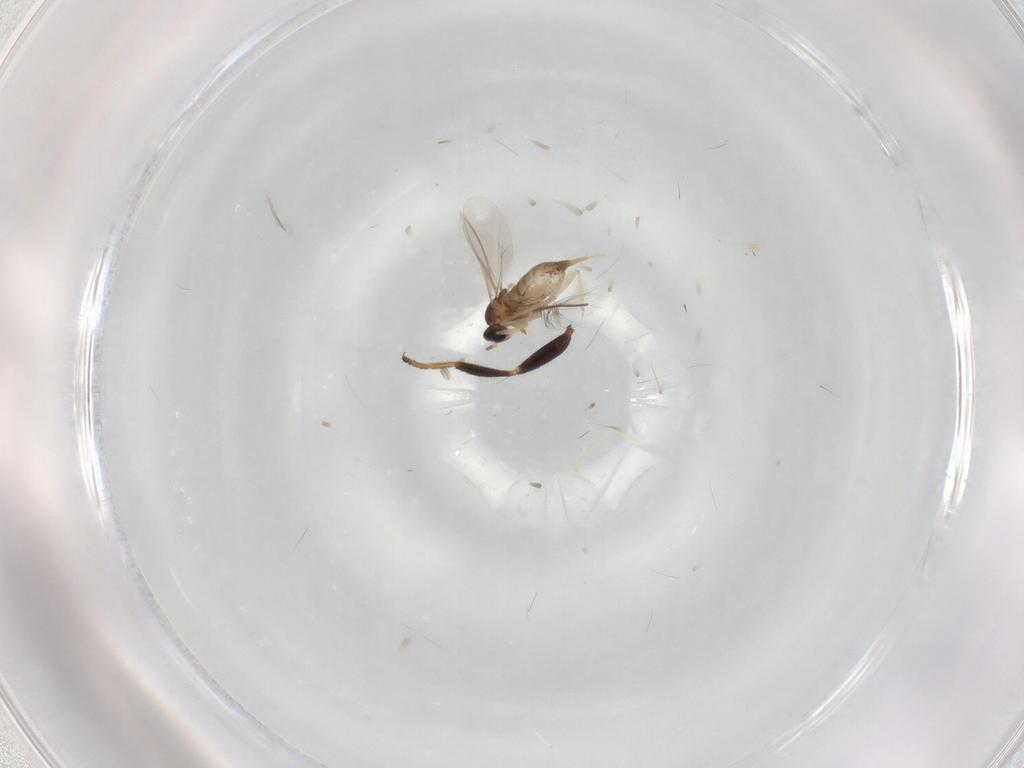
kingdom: Animalia
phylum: Arthropoda
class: Insecta
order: Diptera
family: Cecidomyiidae
